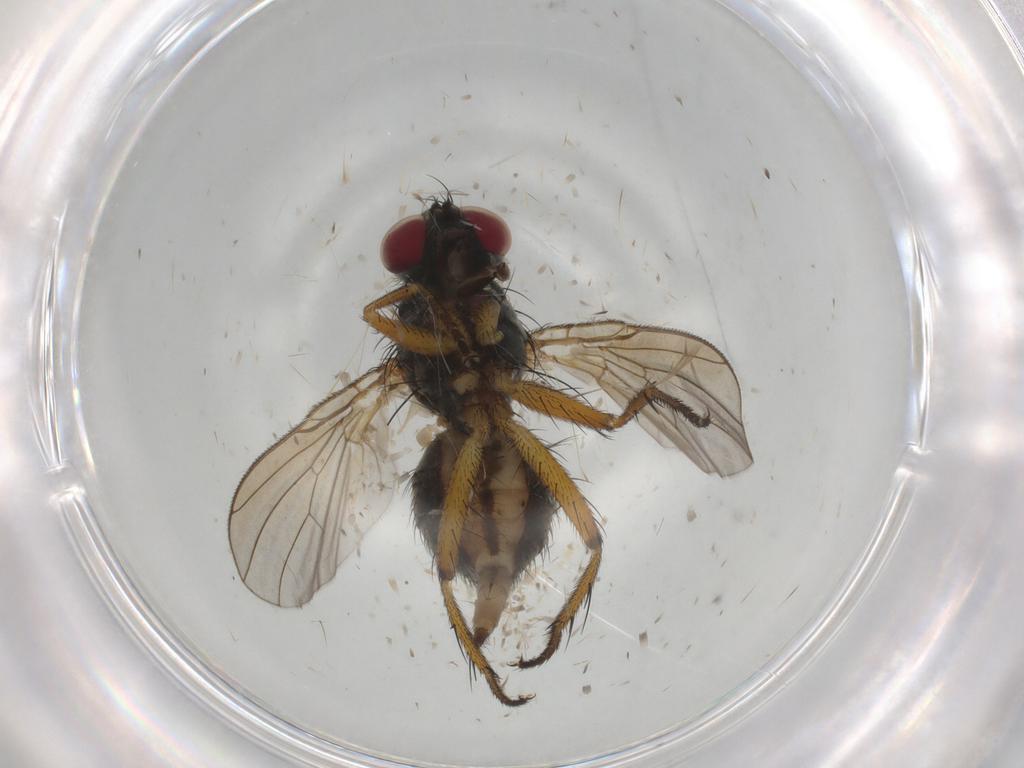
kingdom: Animalia
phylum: Arthropoda
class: Insecta
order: Diptera
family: Muscidae
